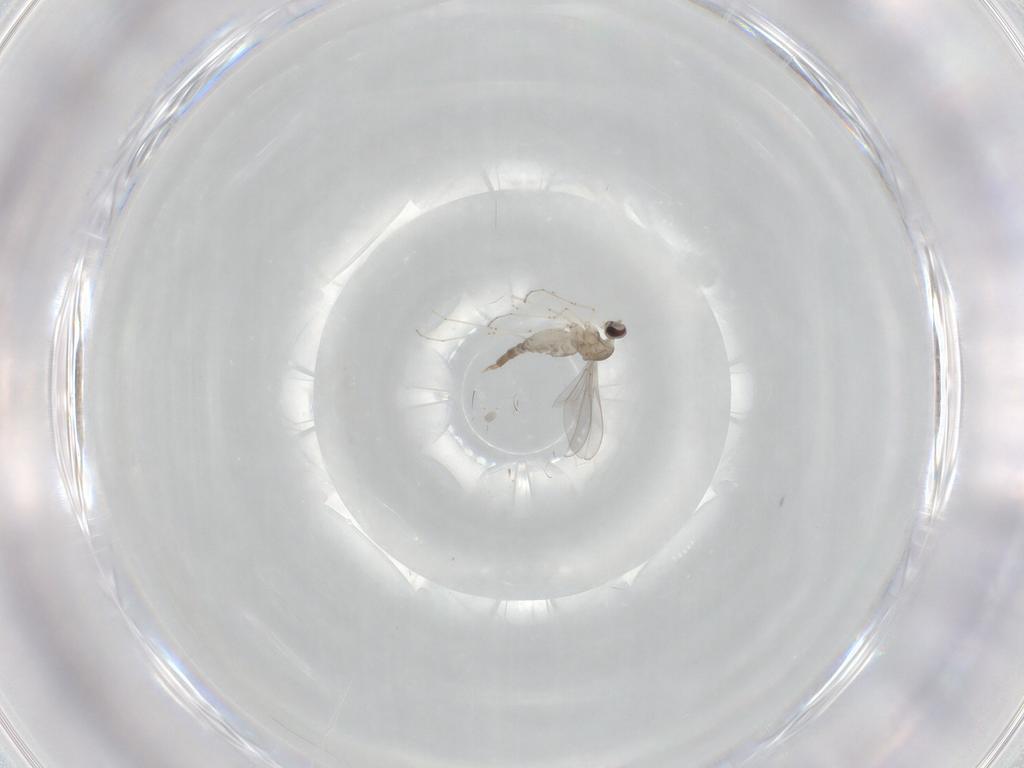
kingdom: Animalia
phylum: Arthropoda
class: Insecta
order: Diptera
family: Cecidomyiidae
